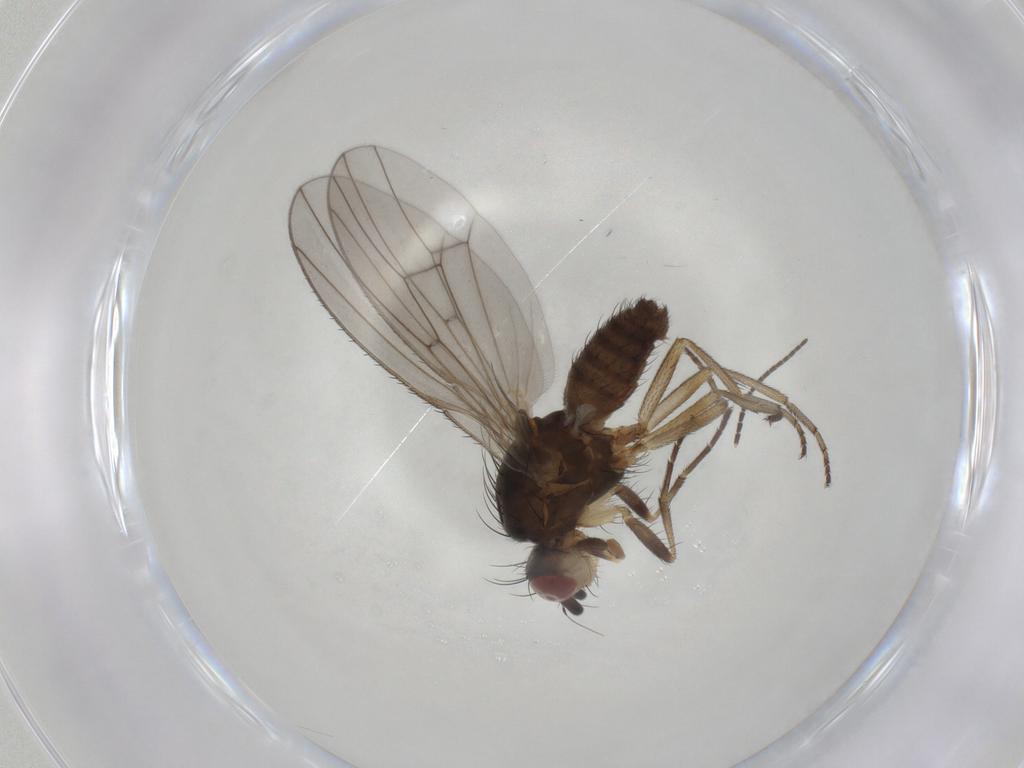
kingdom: Animalia
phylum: Arthropoda
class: Insecta
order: Diptera
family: Heleomyzidae
